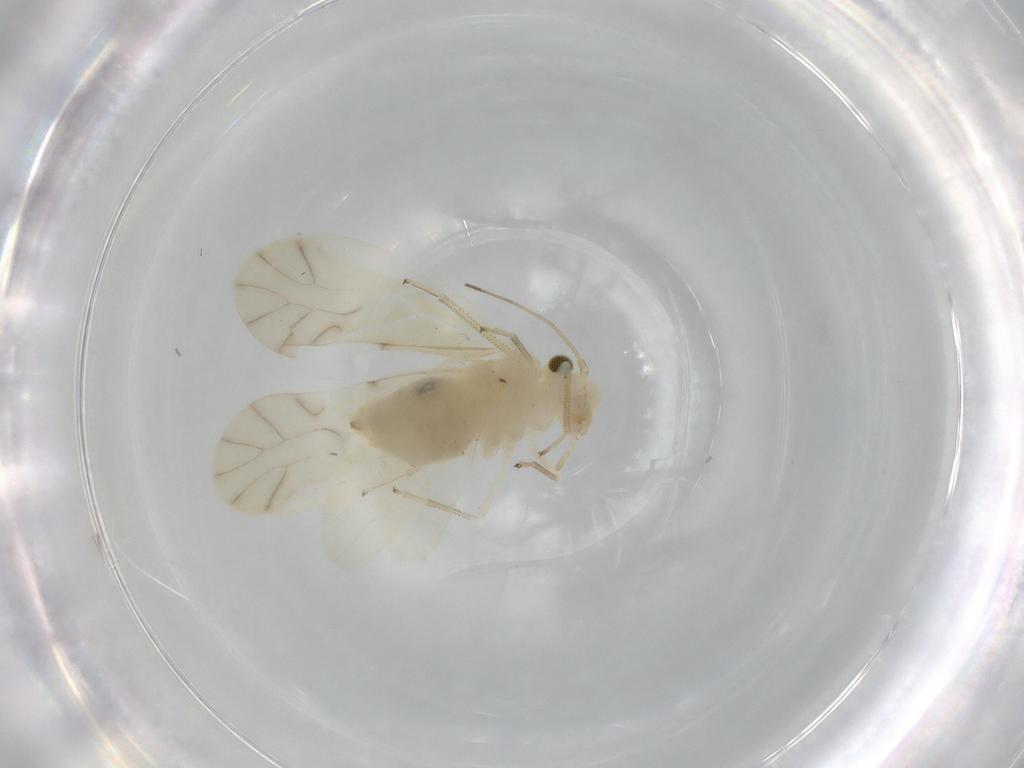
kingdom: Animalia
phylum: Arthropoda
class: Insecta
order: Psocodea
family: Caeciliusidae
